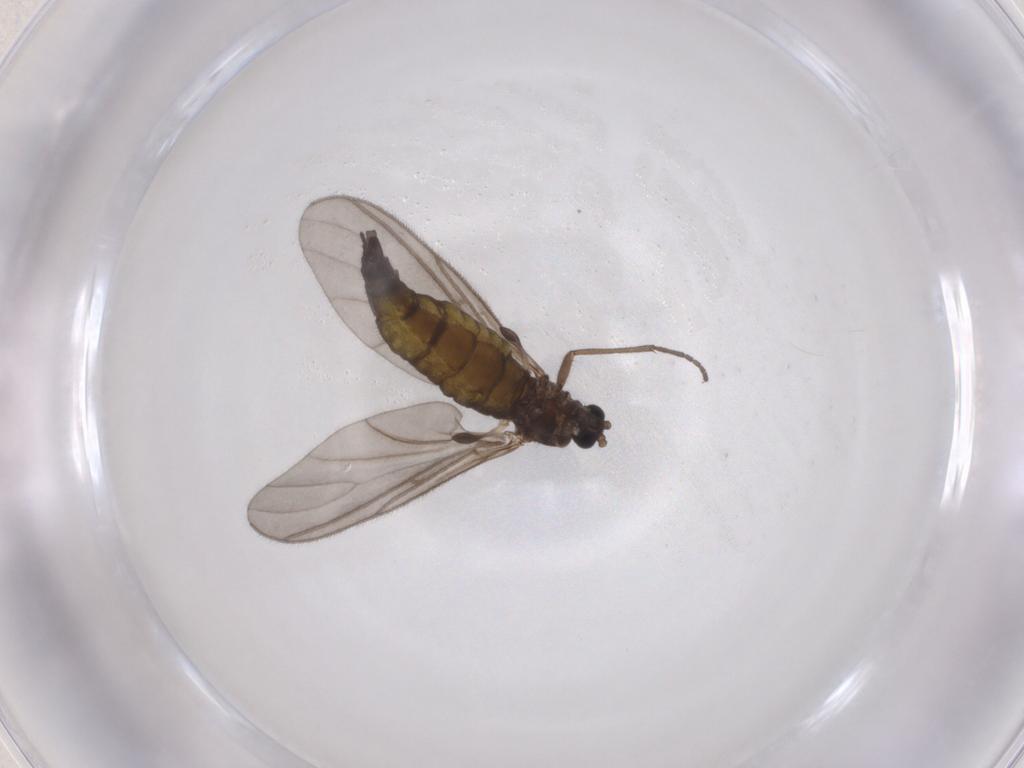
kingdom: Animalia
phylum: Arthropoda
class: Insecta
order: Diptera
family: Sciaridae
